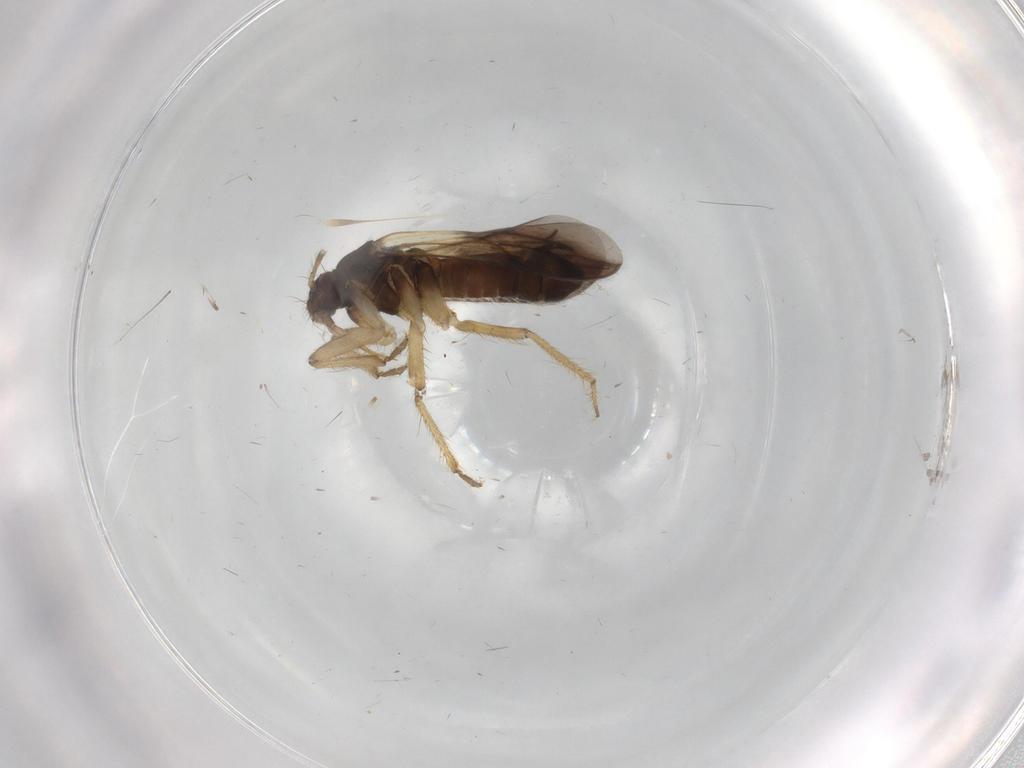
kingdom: Animalia
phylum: Arthropoda
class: Insecta
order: Hemiptera
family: Ceratocombidae
